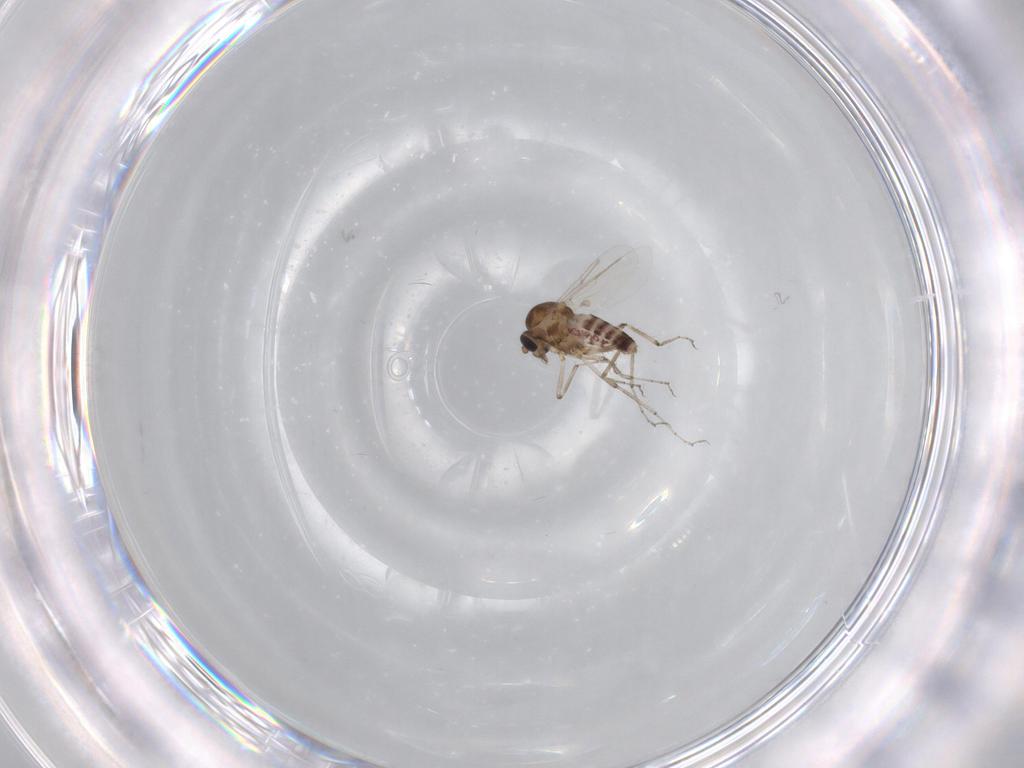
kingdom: Animalia
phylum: Arthropoda
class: Insecta
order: Diptera
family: Ceratopogonidae
